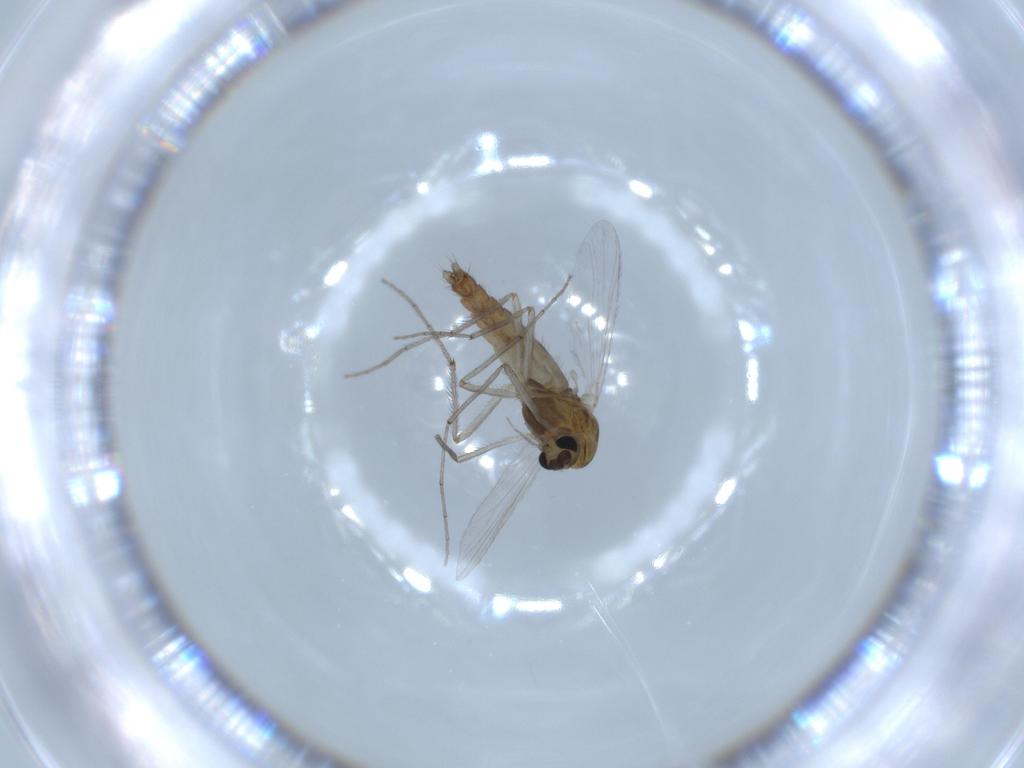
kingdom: Animalia
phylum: Arthropoda
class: Insecta
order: Diptera
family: Chironomidae
